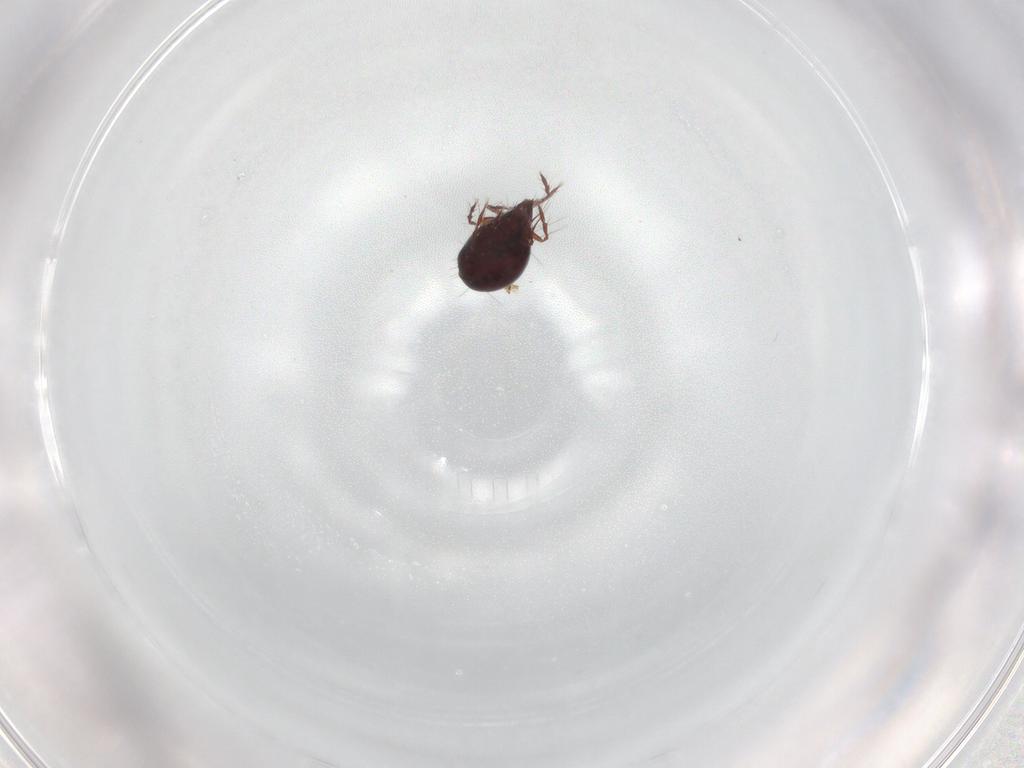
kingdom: Animalia
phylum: Arthropoda
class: Arachnida
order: Sarcoptiformes
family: Ceratoppiidae
